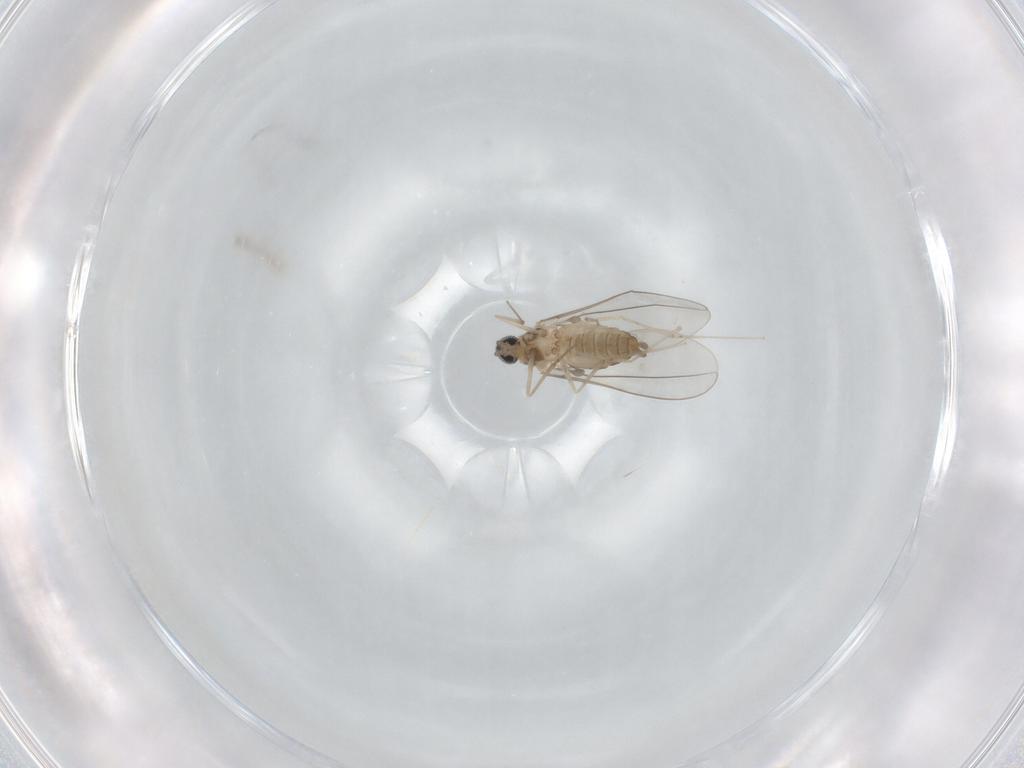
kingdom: Animalia
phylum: Arthropoda
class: Insecta
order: Diptera
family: Cecidomyiidae
